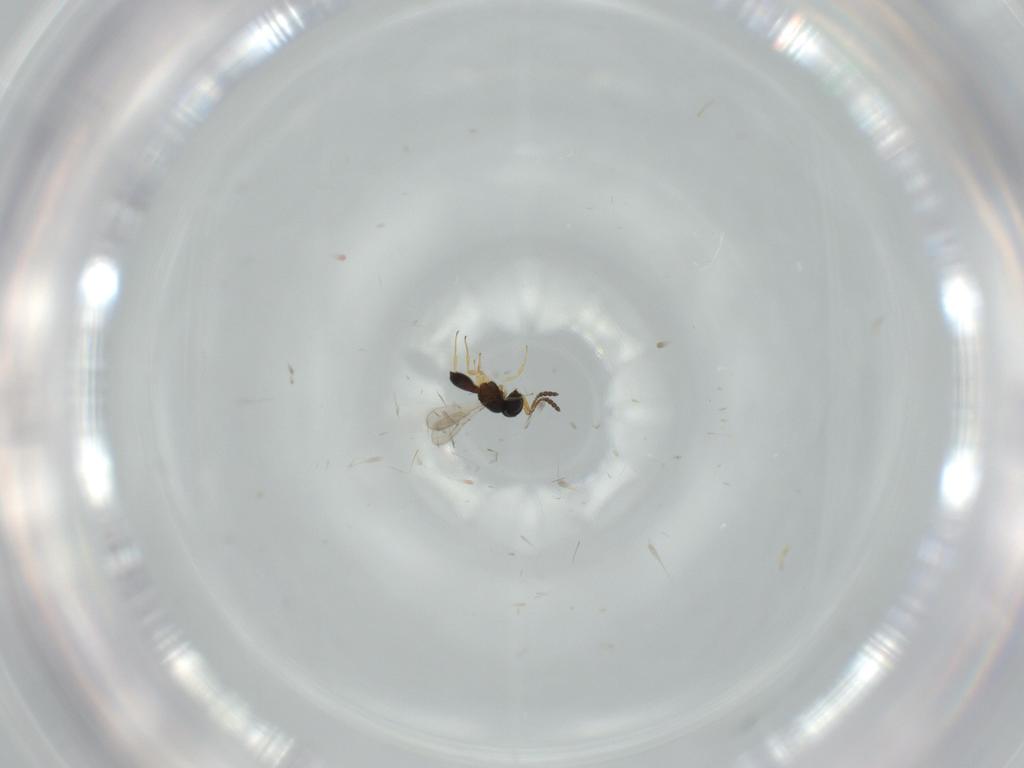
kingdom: Animalia
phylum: Arthropoda
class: Insecta
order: Hymenoptera
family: Scelionidae
